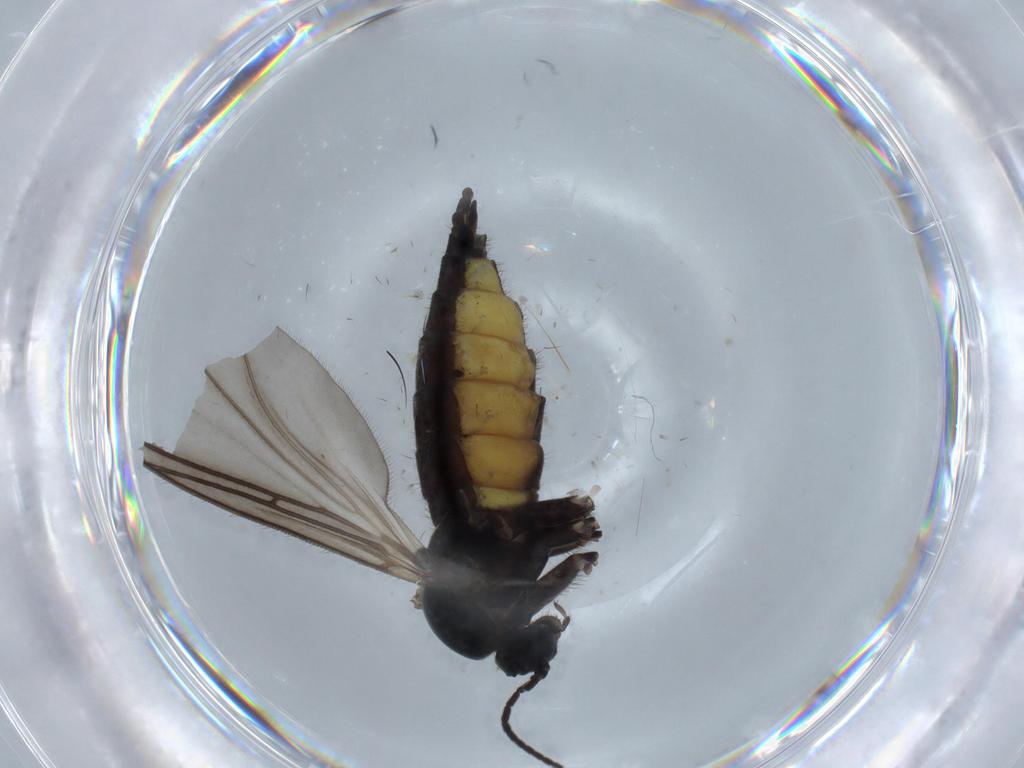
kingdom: Animalia
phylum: Arthropoda
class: Insecta
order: Diptera
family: Sciaridae
